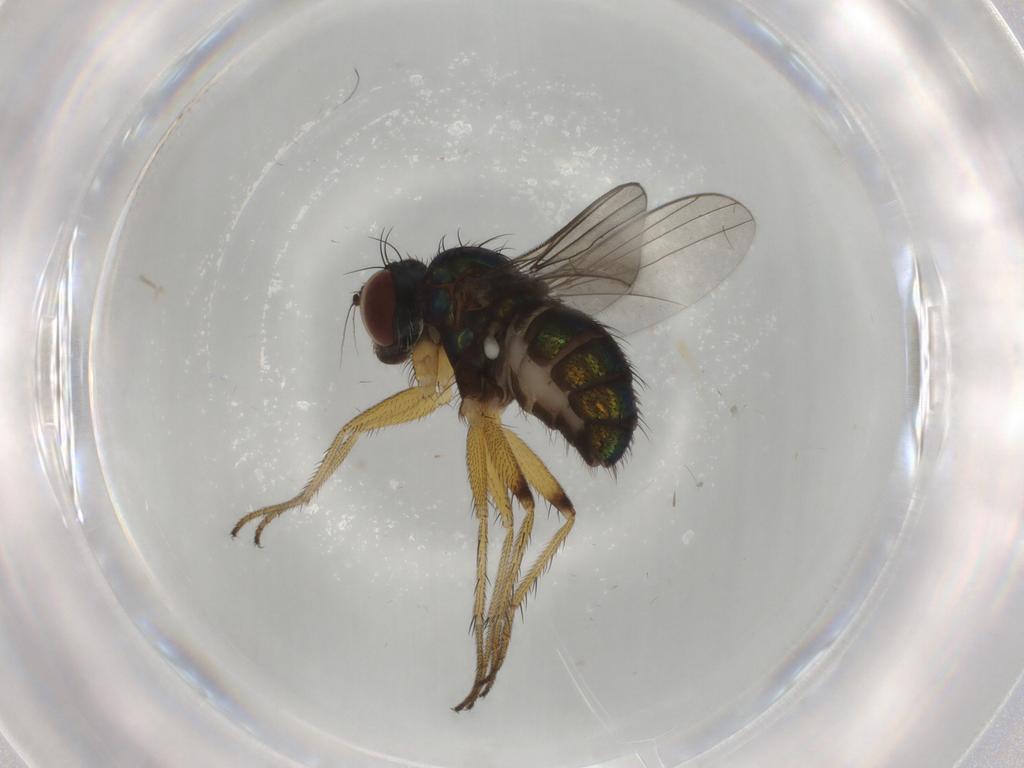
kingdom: Animalia
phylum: Arthropoda
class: Insecta
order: Diptera
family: Dolichopodidae
